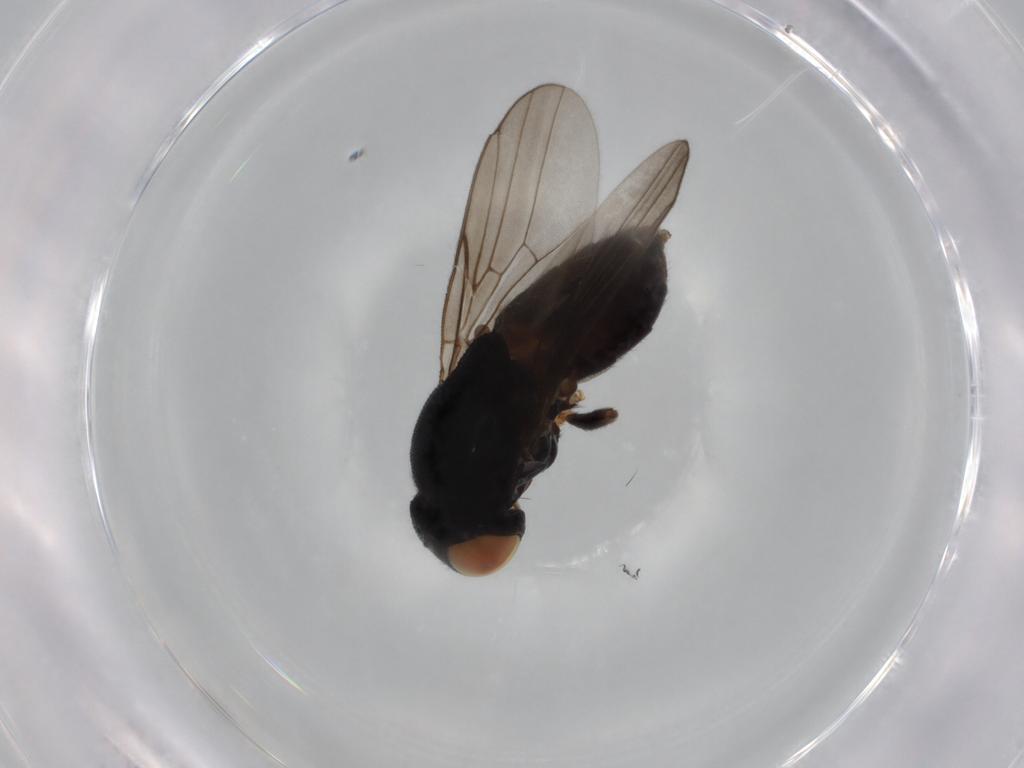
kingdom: Animalia
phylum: Arthropoda
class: Insecta
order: Diptera
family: Chloropidae
